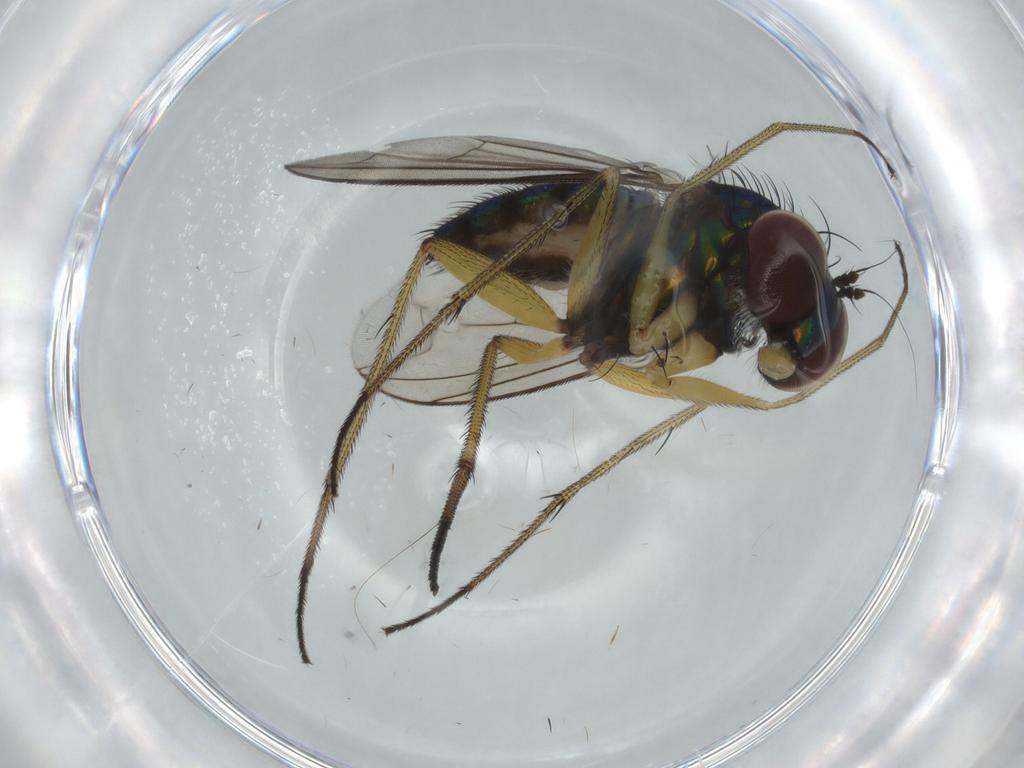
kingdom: Animalia
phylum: Arthropoda
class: Insecta
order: Diptera
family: Dolichopodidae
